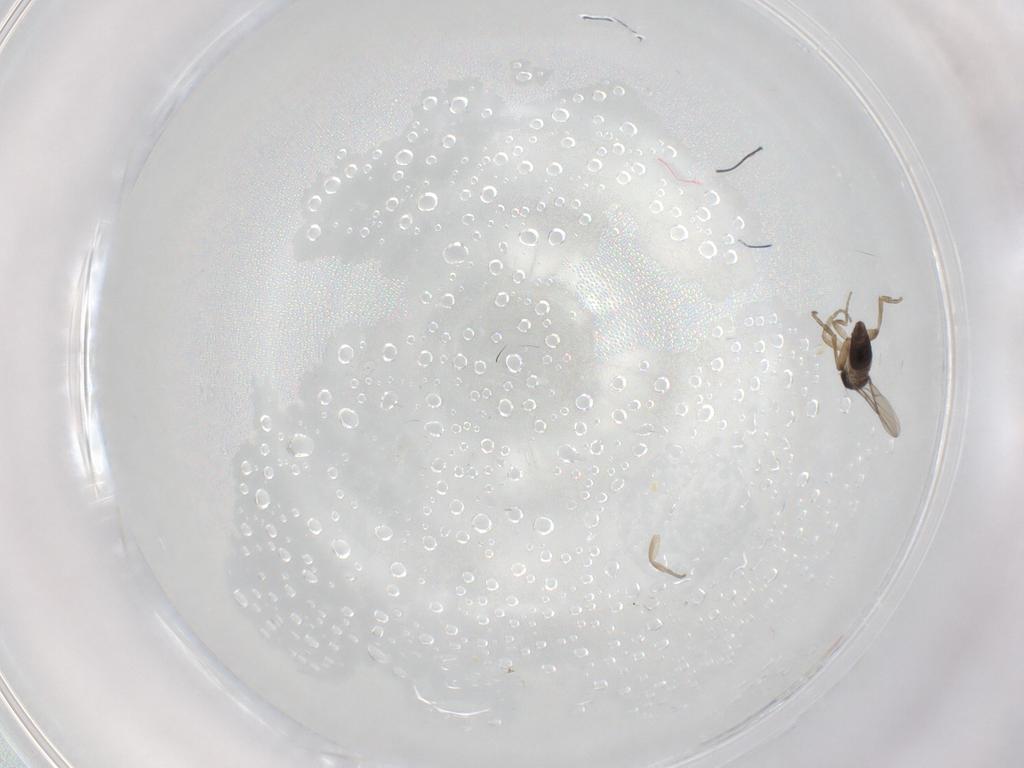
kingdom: Animalia
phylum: Arthropoda
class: Insecta
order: Diptera
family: Phoridae
